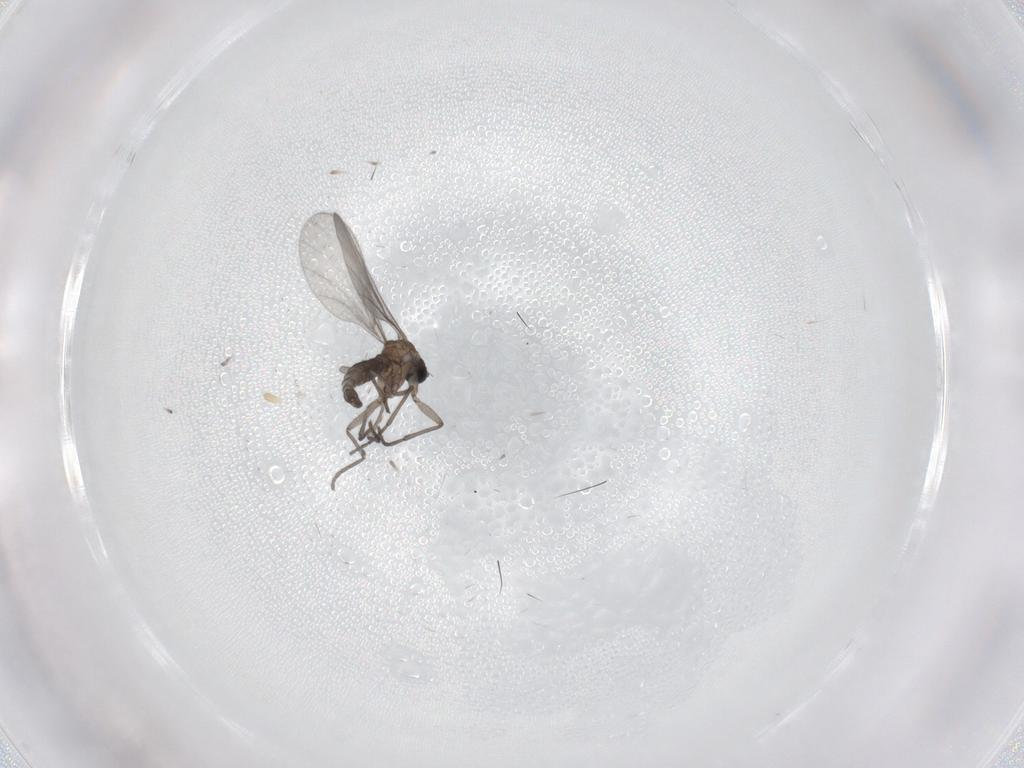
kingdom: Animalia
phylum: Arthropoda
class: Insecta
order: Diptera
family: Sciaridae
